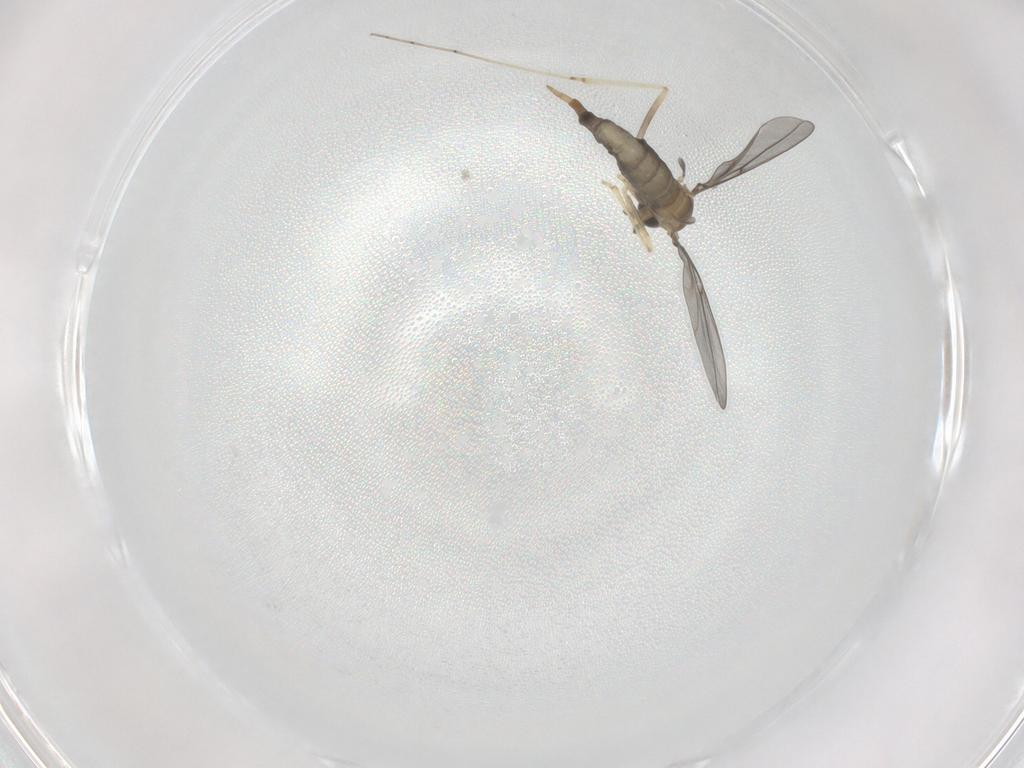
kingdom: Animalia
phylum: Arthropoda
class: Insecta
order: Diptera
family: Cecidomyiidae
